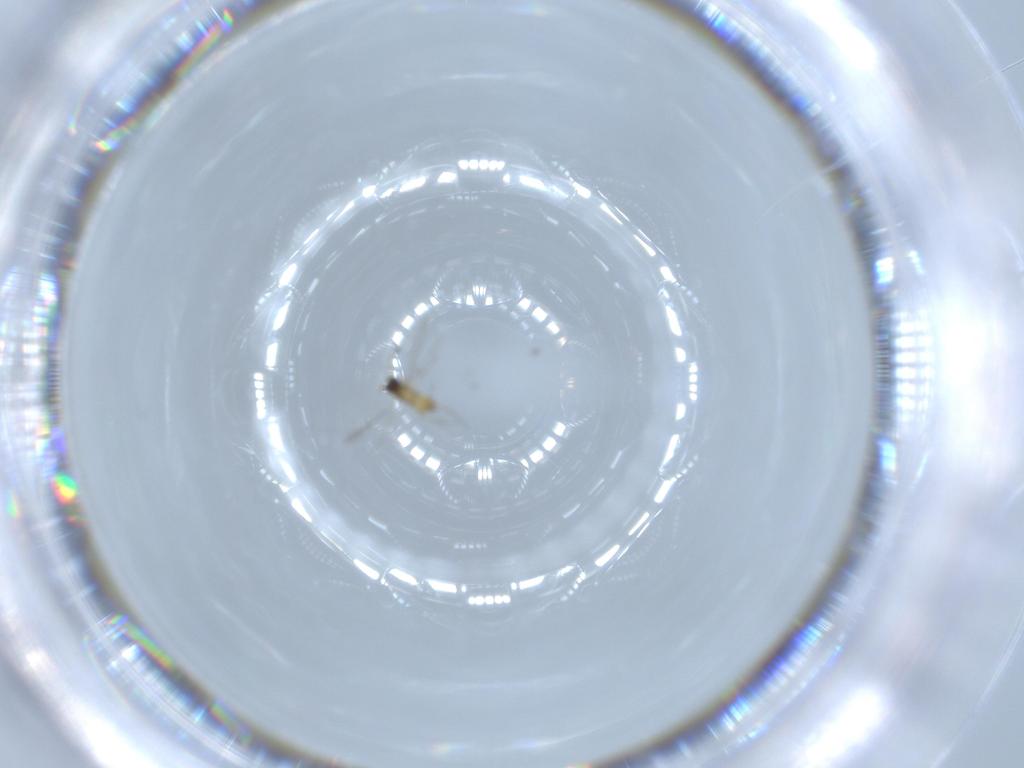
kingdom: Animalia
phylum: Arthropoda
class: Insecta
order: Hymenoptera
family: Mymaridae
